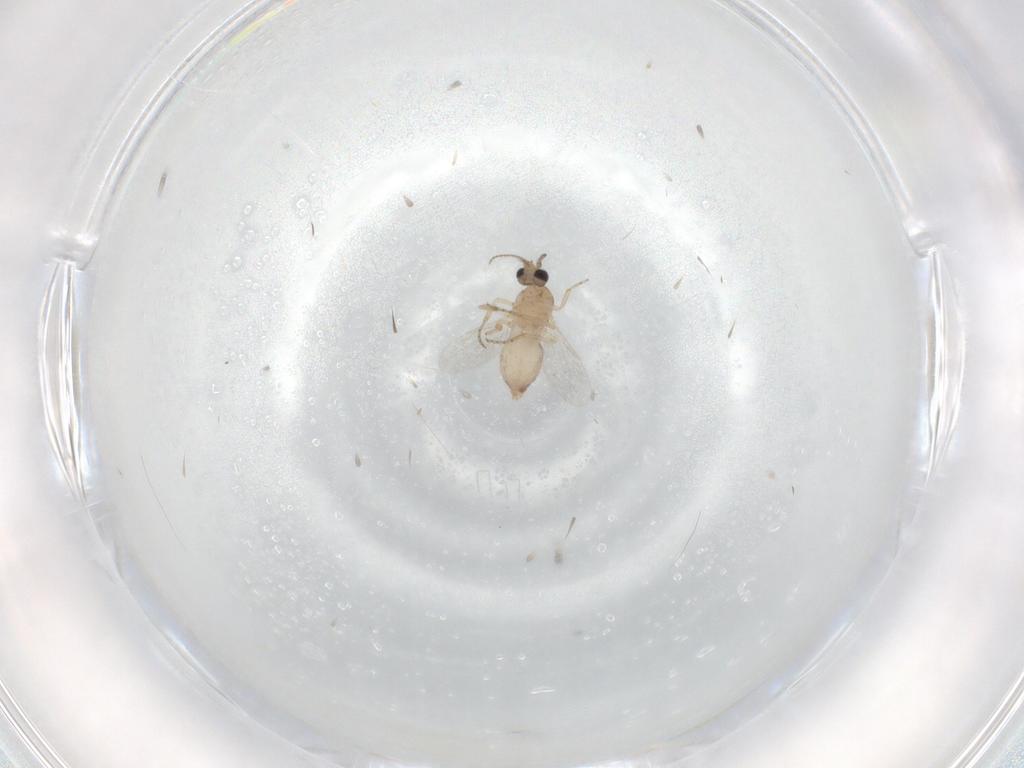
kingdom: Animalia
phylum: Arthropoda
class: Insecta
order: Diptera
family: Ceratopogonidae
